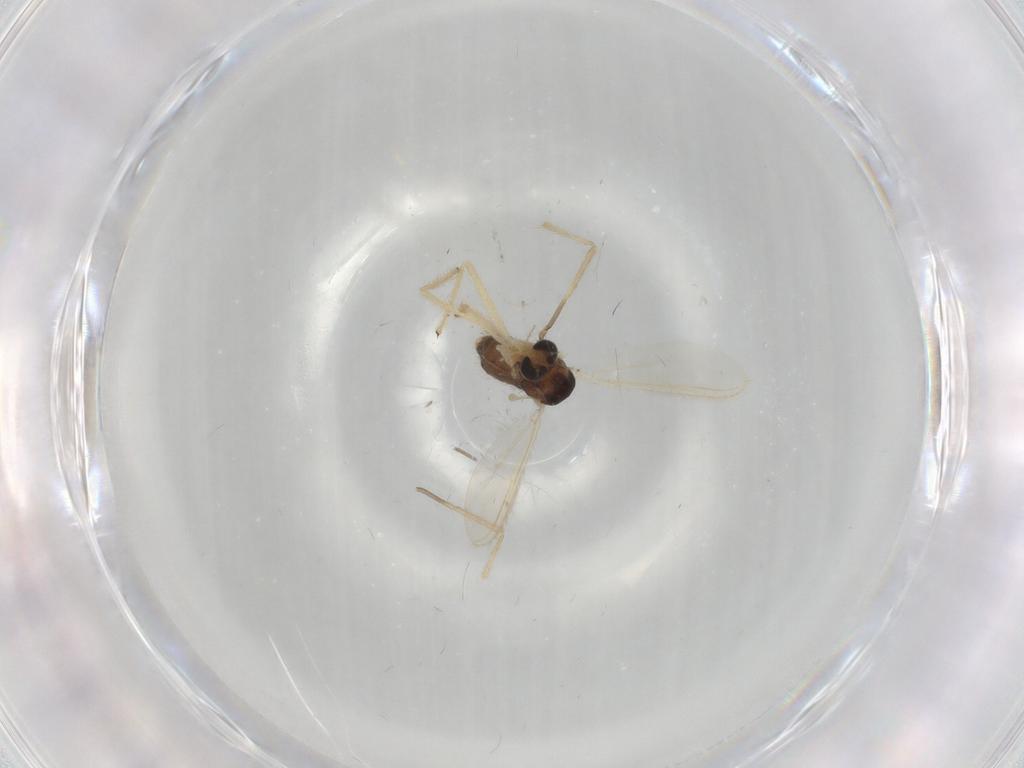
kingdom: Animalia
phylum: Arthropoda
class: Insecta
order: Diptera
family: Chironomidae
